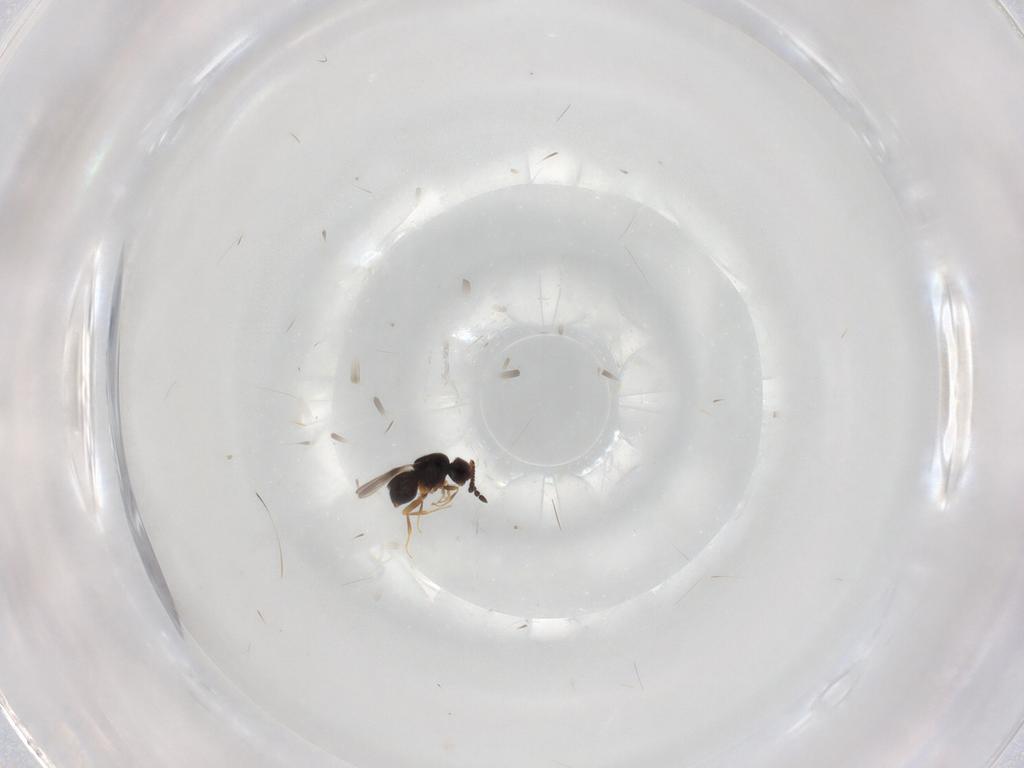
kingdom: Animalia
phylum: Arthropoda
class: Insecta
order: Hymenoptera
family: Ceraphronidae
